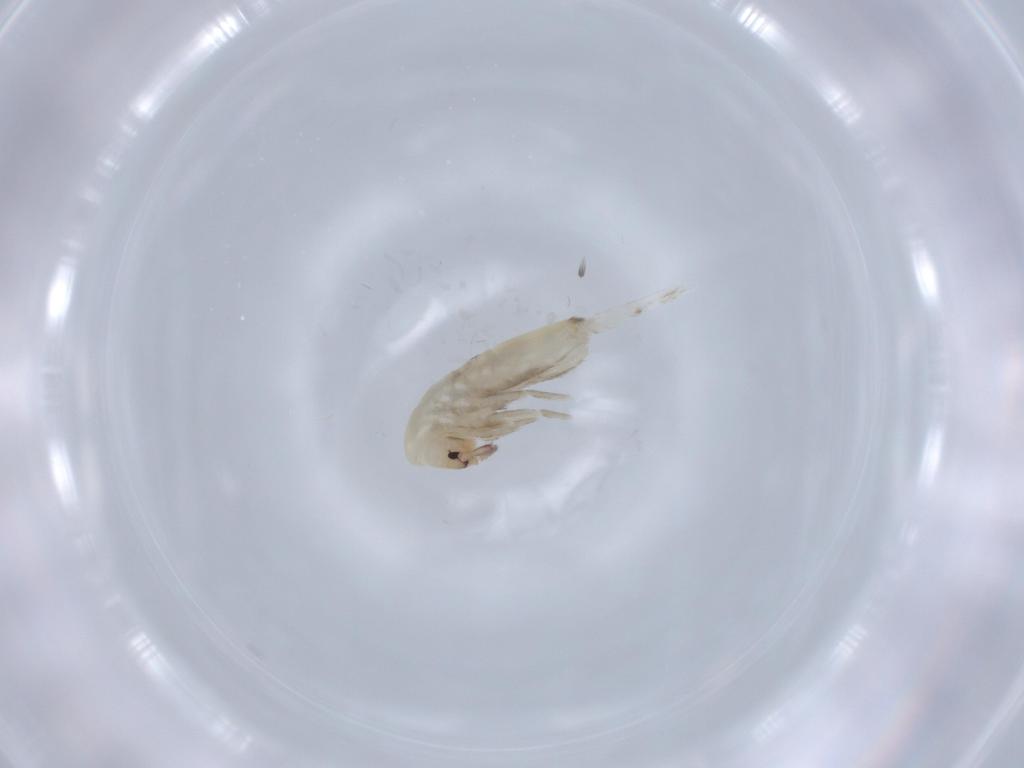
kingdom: Animalia
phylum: Arthropoda
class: Collembola
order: Entomobryomorpha
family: Entomobryidae
